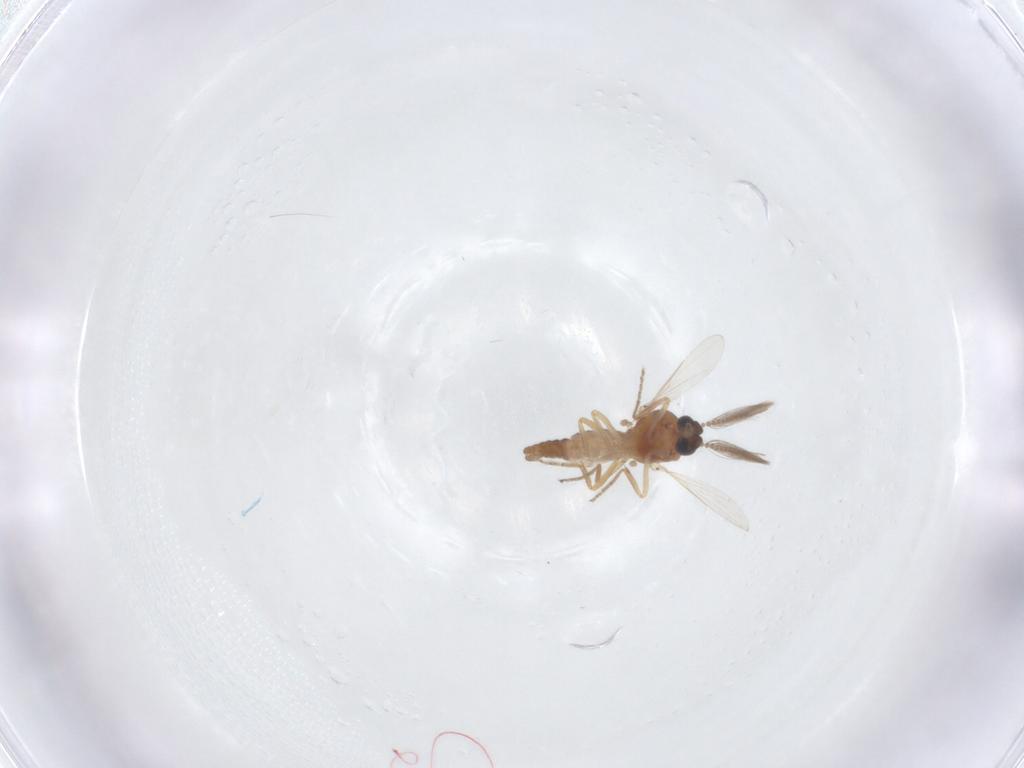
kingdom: Animalia
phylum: Arthropoda
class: Insecta
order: Diptera
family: Ceratopogonidae
